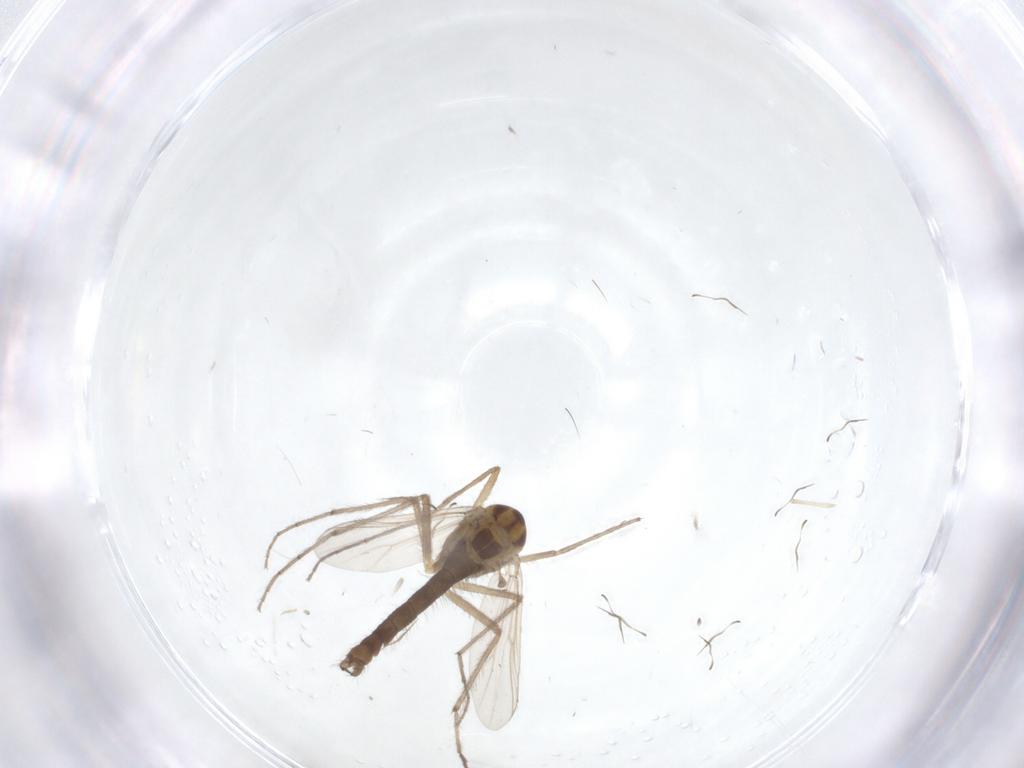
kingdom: Animalia
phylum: Arthropoda
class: Insecta
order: Diptera
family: Chironomidae
